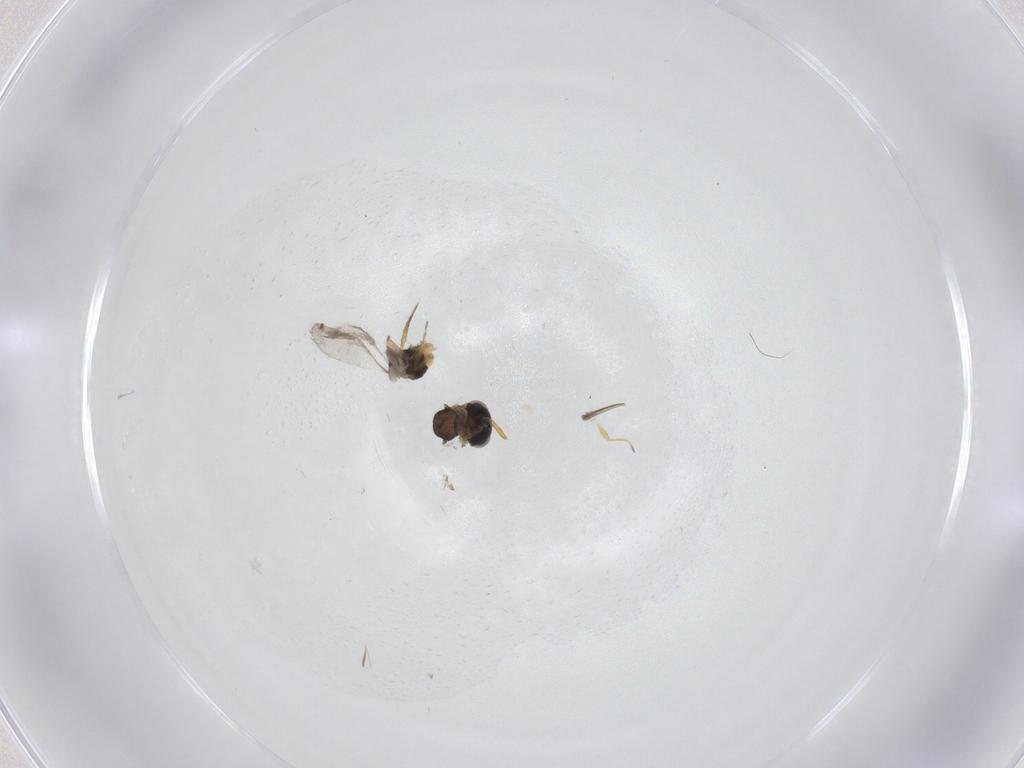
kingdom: Animalia
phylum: Arthropoda
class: Insecta
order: Hymenoptera
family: Scelionidae
